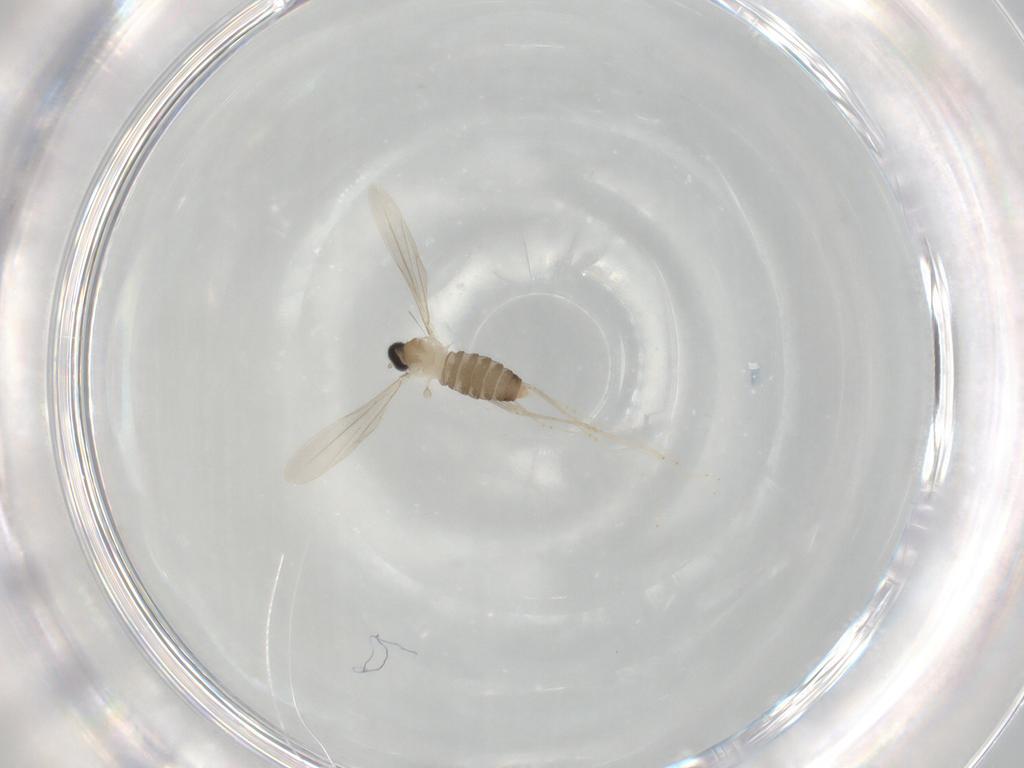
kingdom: Animalia
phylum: Arthropoda
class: Insecta
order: Diptera
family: Cecidomyiidae
